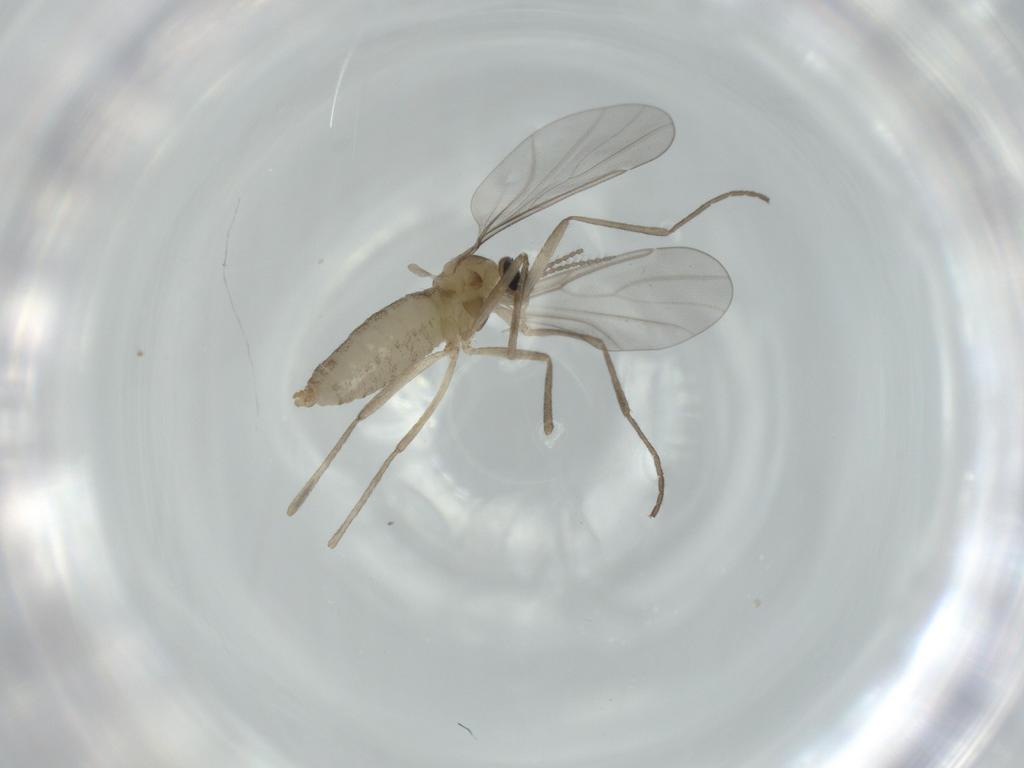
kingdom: Animalia
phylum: Arthropoda
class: Insecta
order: Diptera
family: Cecidomyiidae
